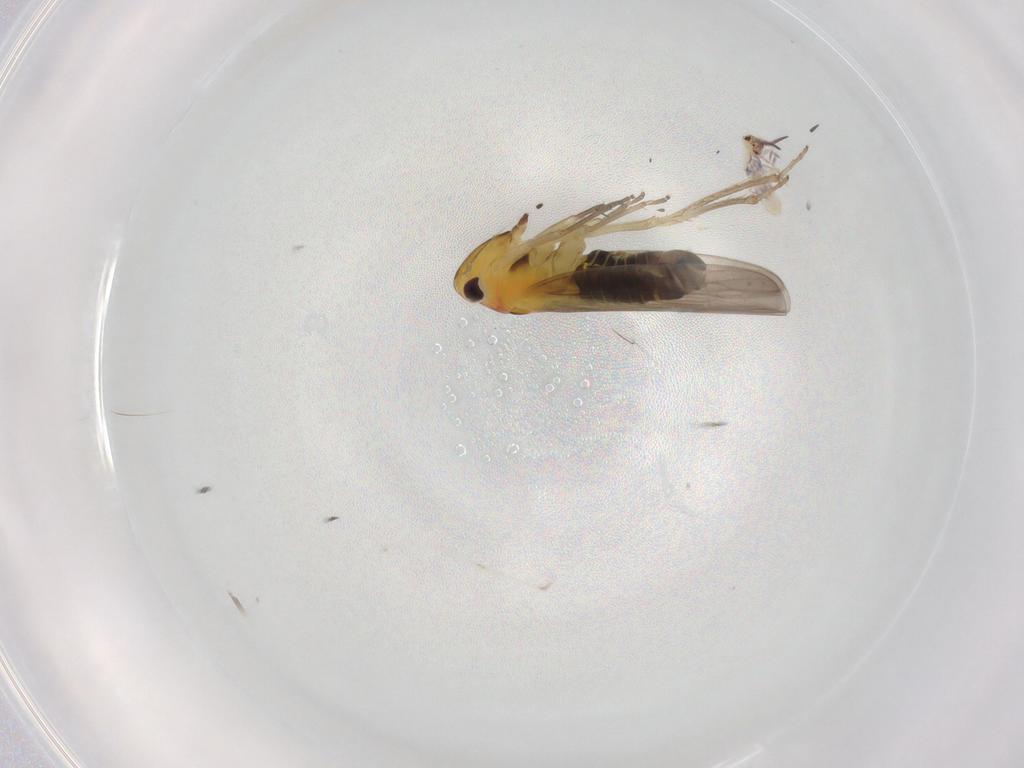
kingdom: Animalia
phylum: Arthropoda
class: Insecta
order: Hemiptera
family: Cicadellidae
